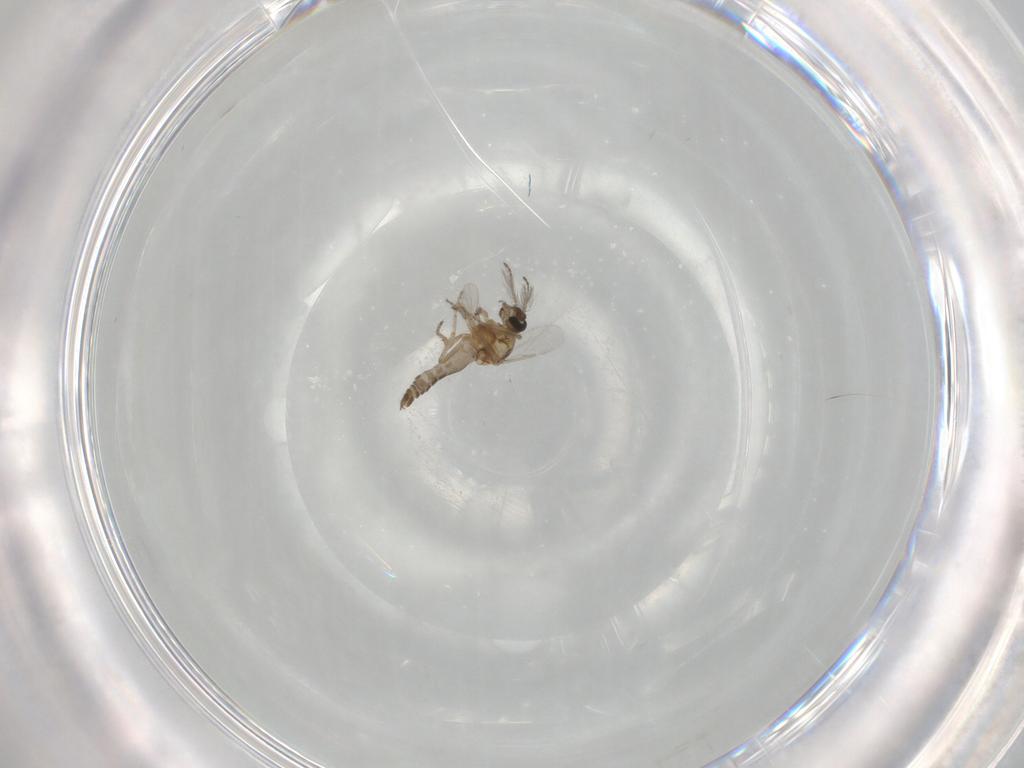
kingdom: Animalia
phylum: Arthropoda
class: Insecta
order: Diptera
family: Ceratopogonidae
